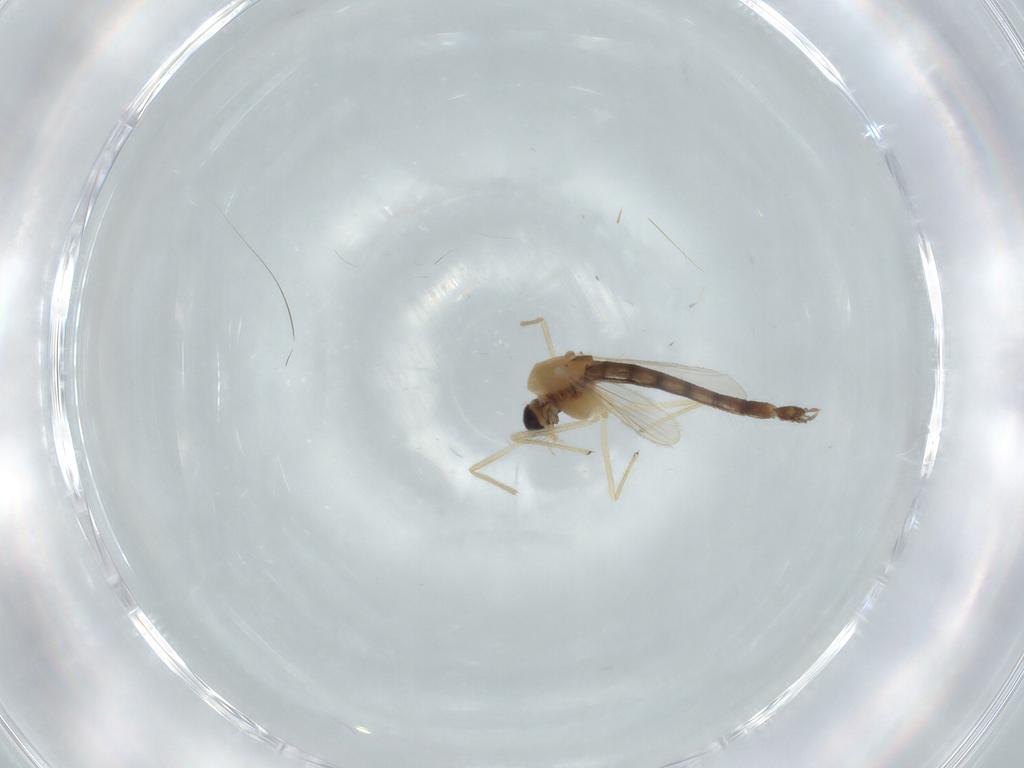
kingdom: Animalia
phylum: Arthropoda
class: Insecta
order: Diptera
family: Chironomidae
